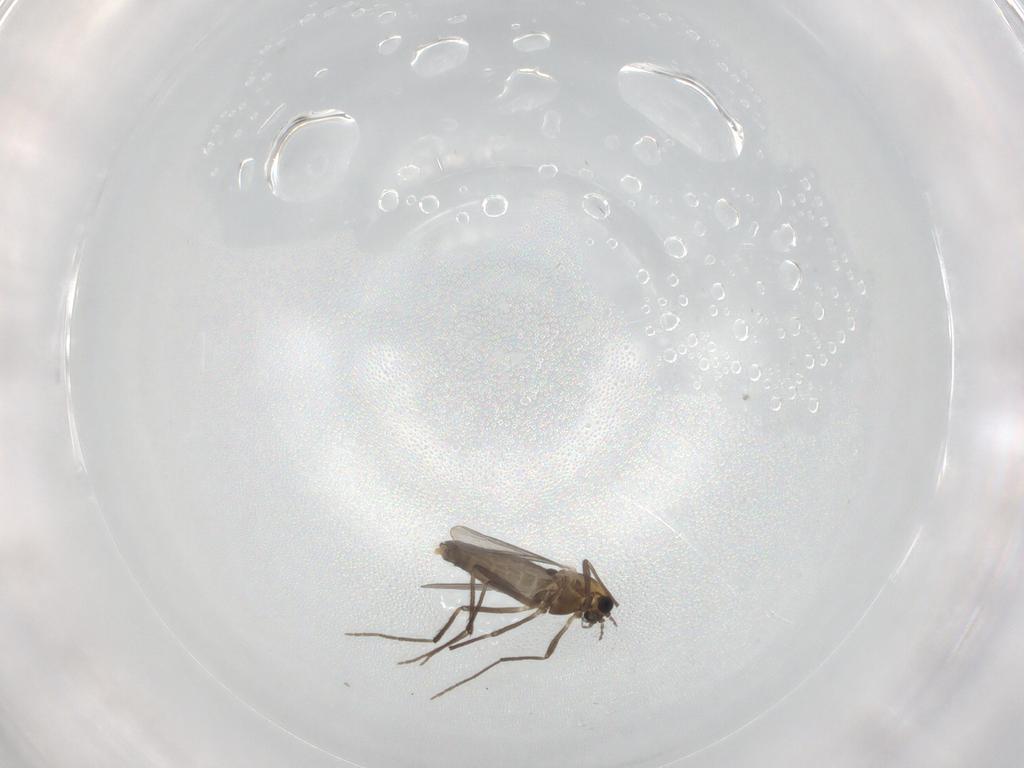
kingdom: Animalia
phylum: Arthropoda
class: Insecta
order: Diptera
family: Chironomidae
